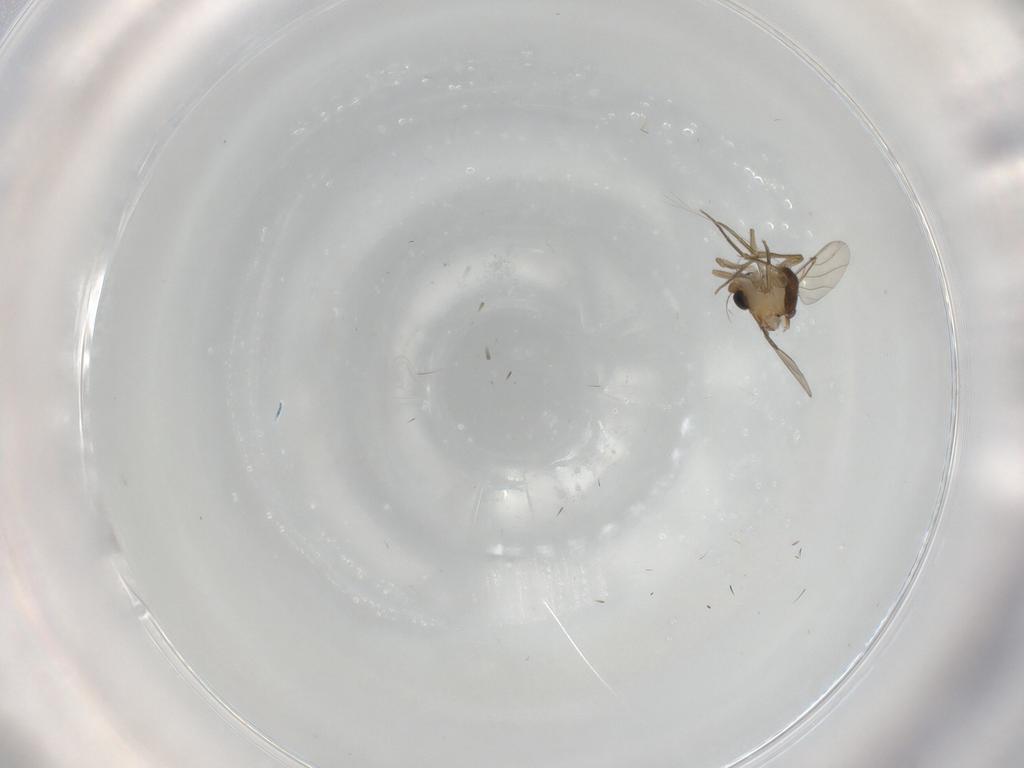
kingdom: Animalia
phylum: Arthropoda
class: Insecta
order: Diptera
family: Phoridae
